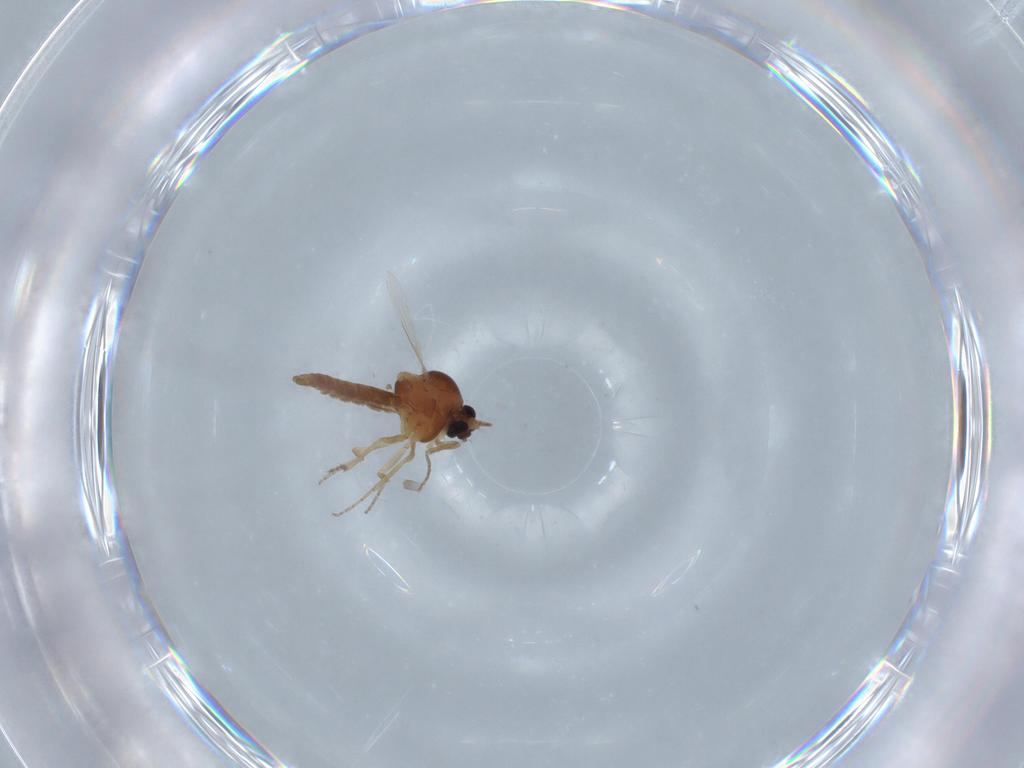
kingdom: Animalia
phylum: Arthropoda
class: Insecta
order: Diptera
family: Ceratopogonidae
